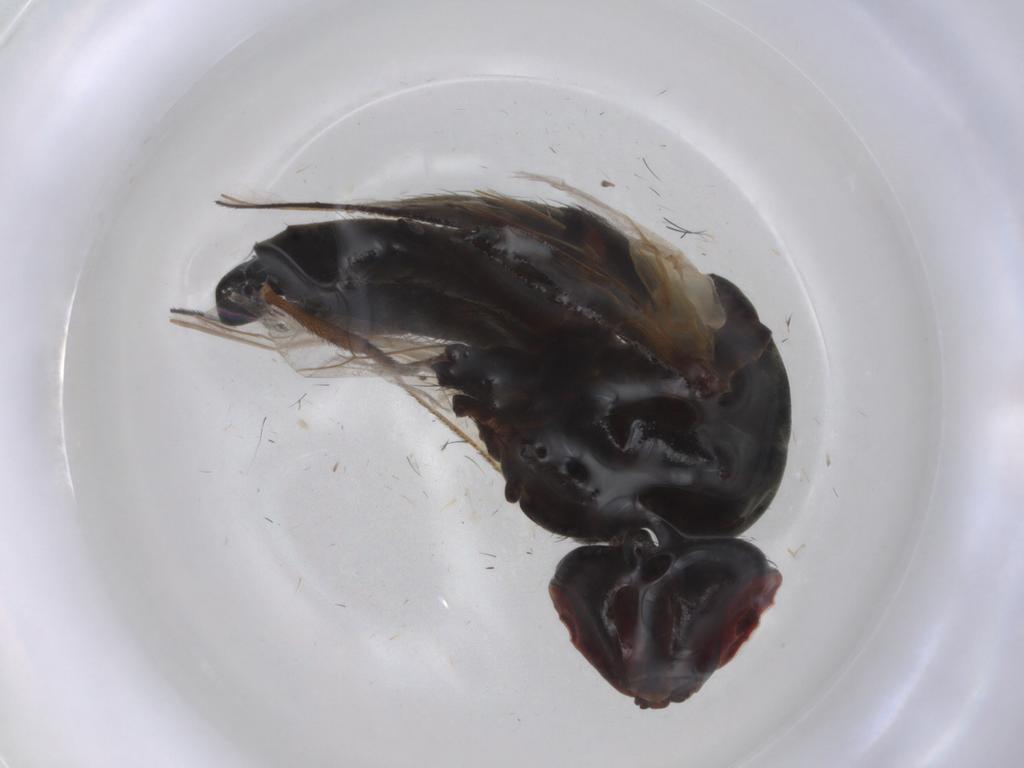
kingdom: Animalia
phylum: Arthropoda
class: Insecta
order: Diptera
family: Tachinidae
